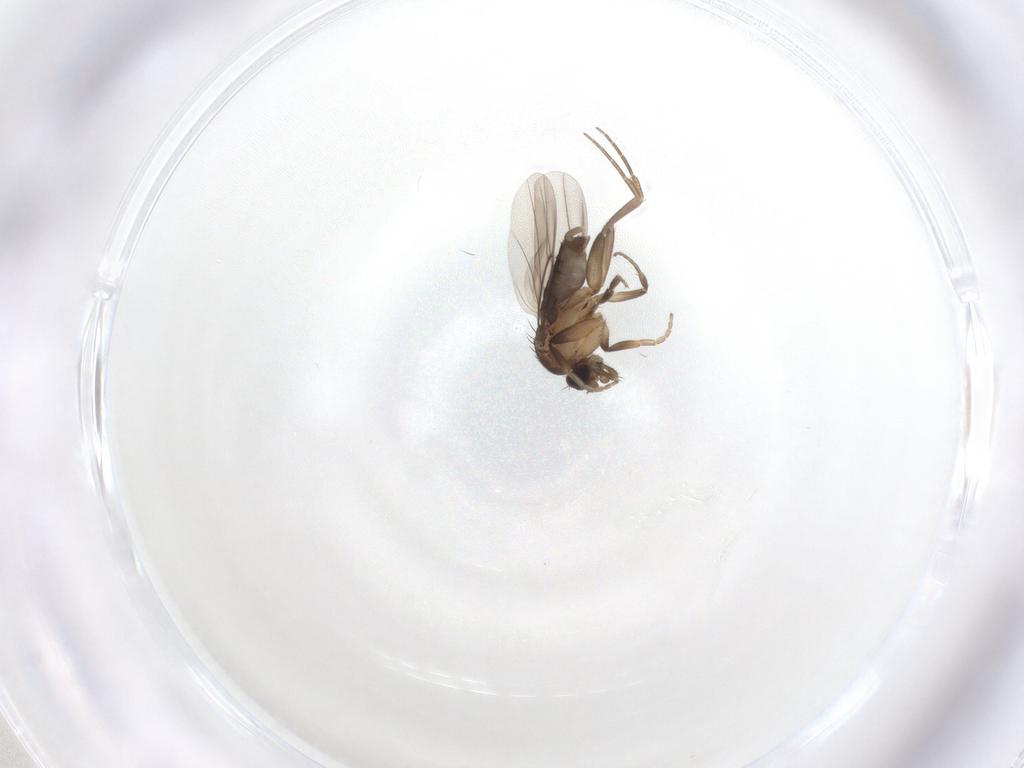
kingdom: Animalia
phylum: Arthropoda
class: Insecta
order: Diptera
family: Phoridae
